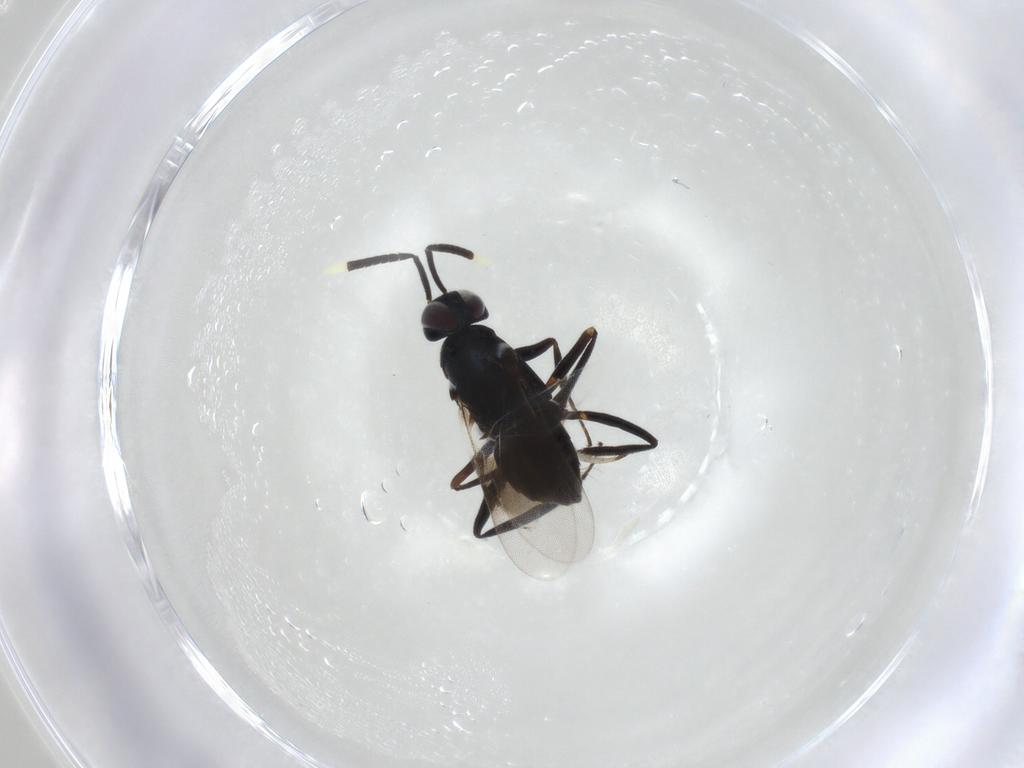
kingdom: Animalia
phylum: Arthropoda
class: Insecta
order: Hymenoptera
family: Encyrtidae
